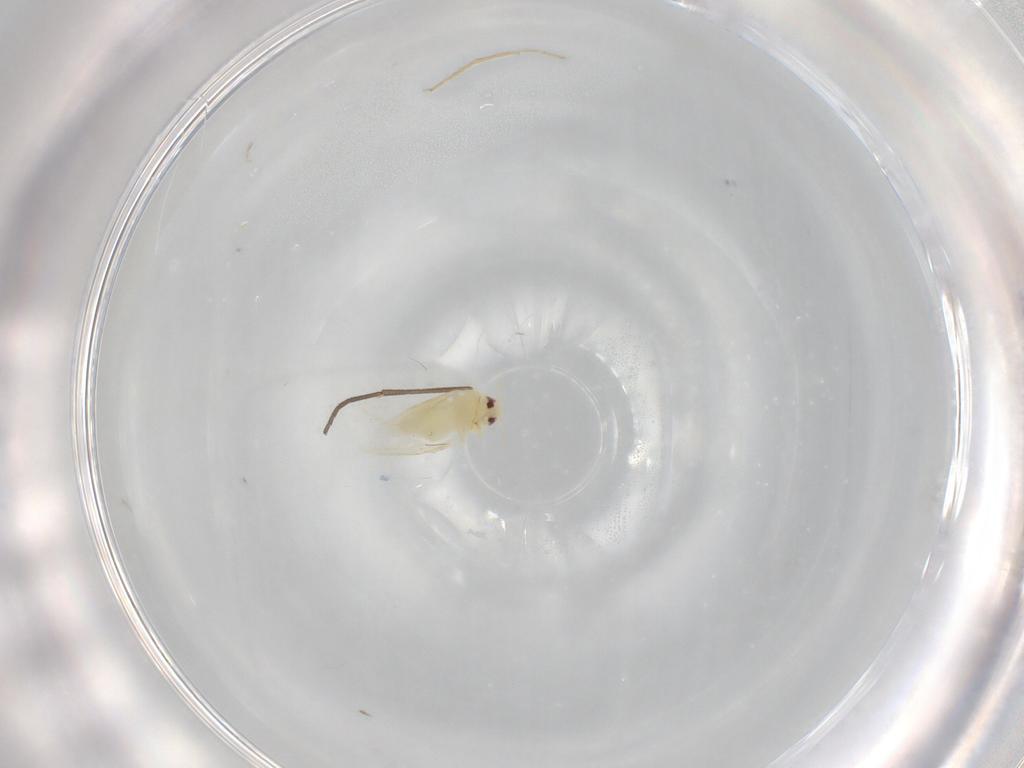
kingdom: Animalia
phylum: Arthropoda
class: Insecta
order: Hemiptera
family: Aleyrodidae
